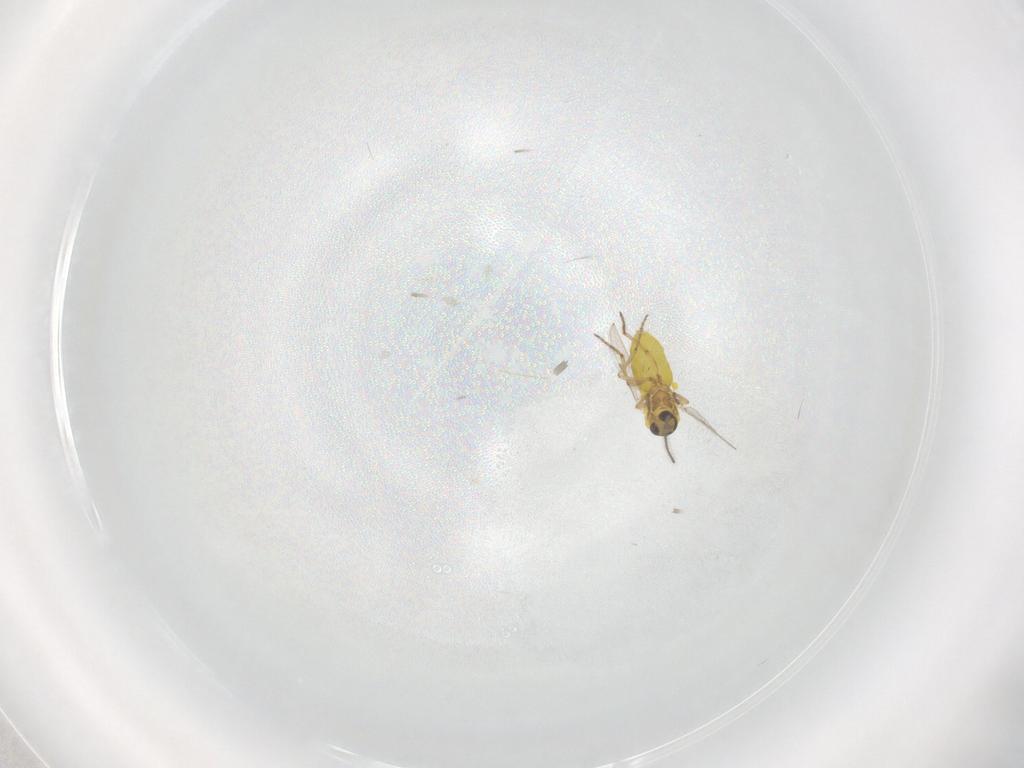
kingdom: Animalia
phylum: Arthropoda
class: Insecta
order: Diptera
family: Ceratopogonidae
